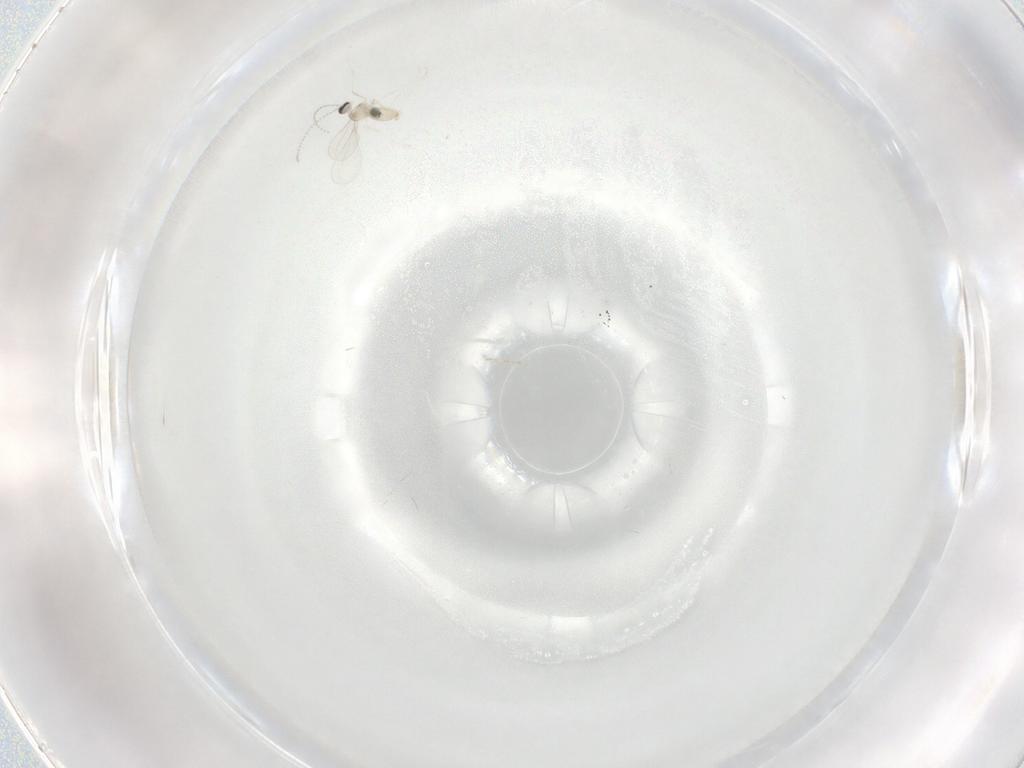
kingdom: Animalia
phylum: Arthropoda
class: Insecta
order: Diptera
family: Cecidomyiidae
